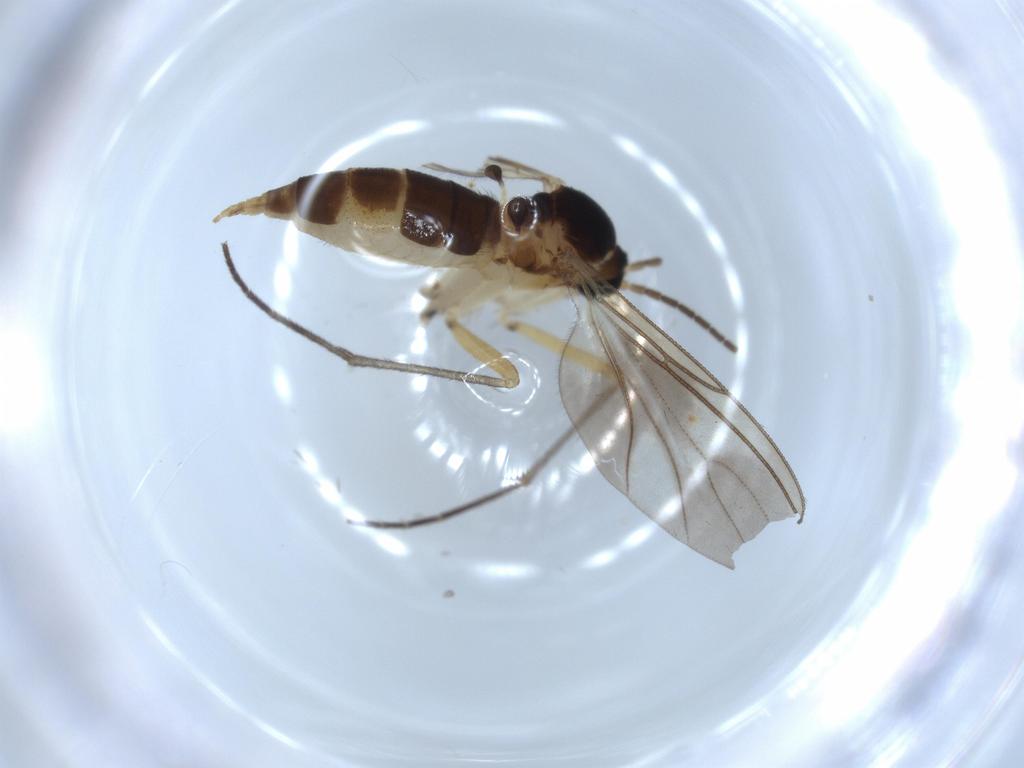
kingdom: Animalia
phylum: Arthropoda
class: Insecta
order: Diptera
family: Sciaridae
